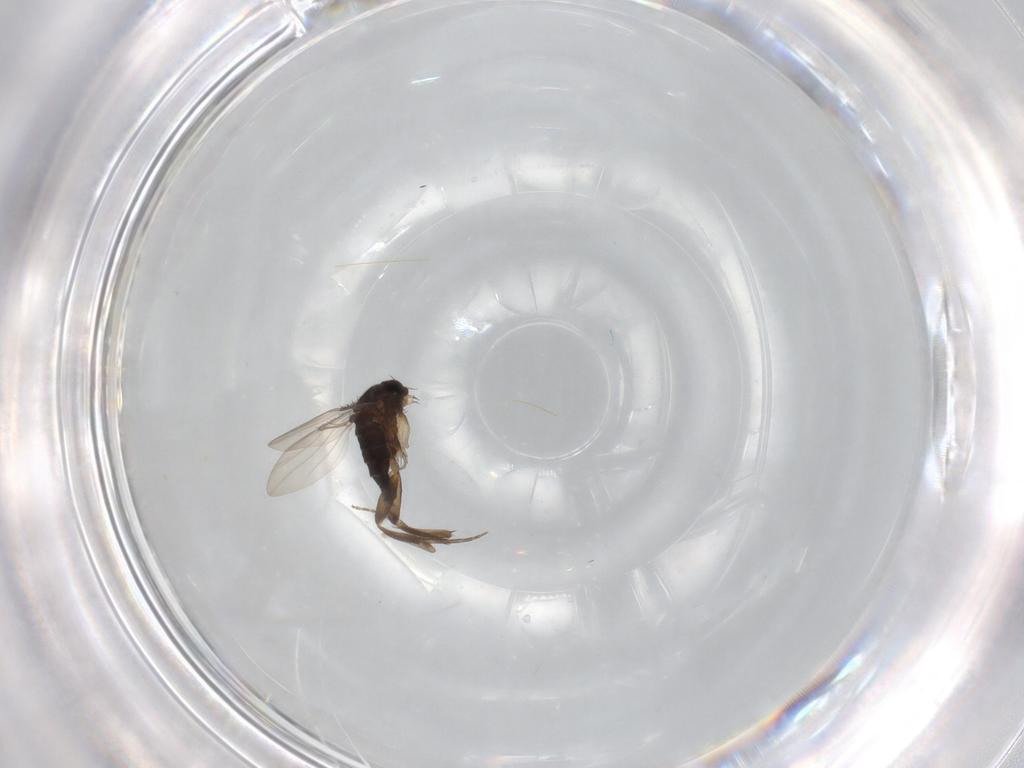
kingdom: Animalia
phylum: Arthropoda
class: Insecta
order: Diptera
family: Phoridae
